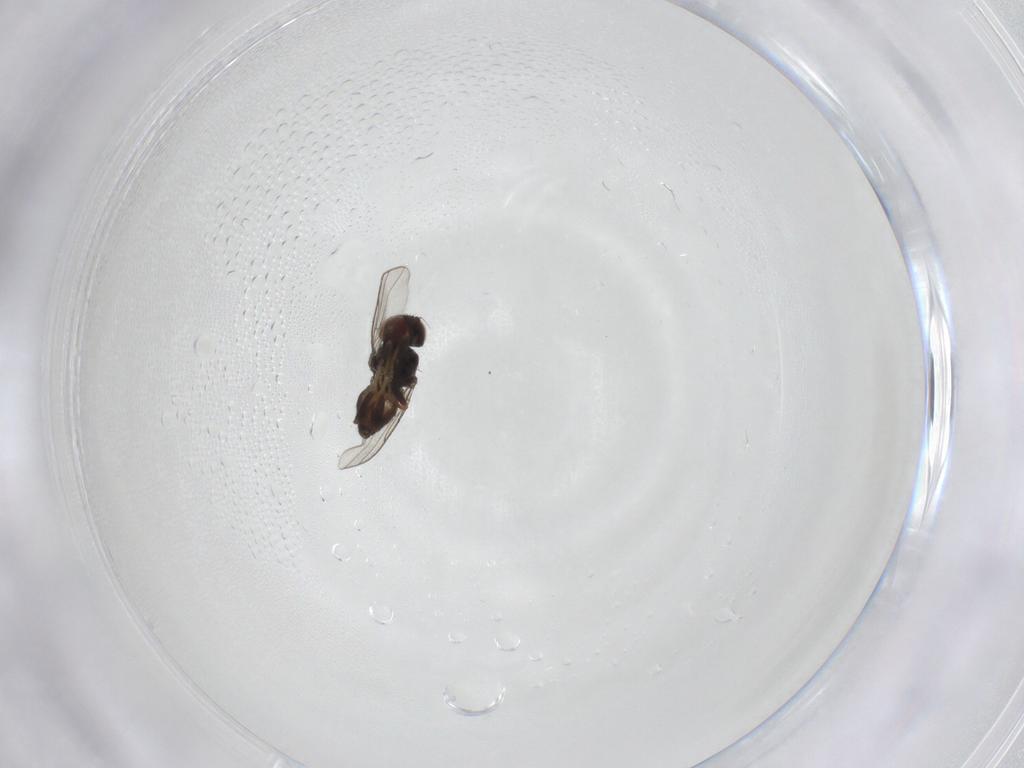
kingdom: Animalia
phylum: Arthropoda
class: Insecta
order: Diptera
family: Chloropidae
